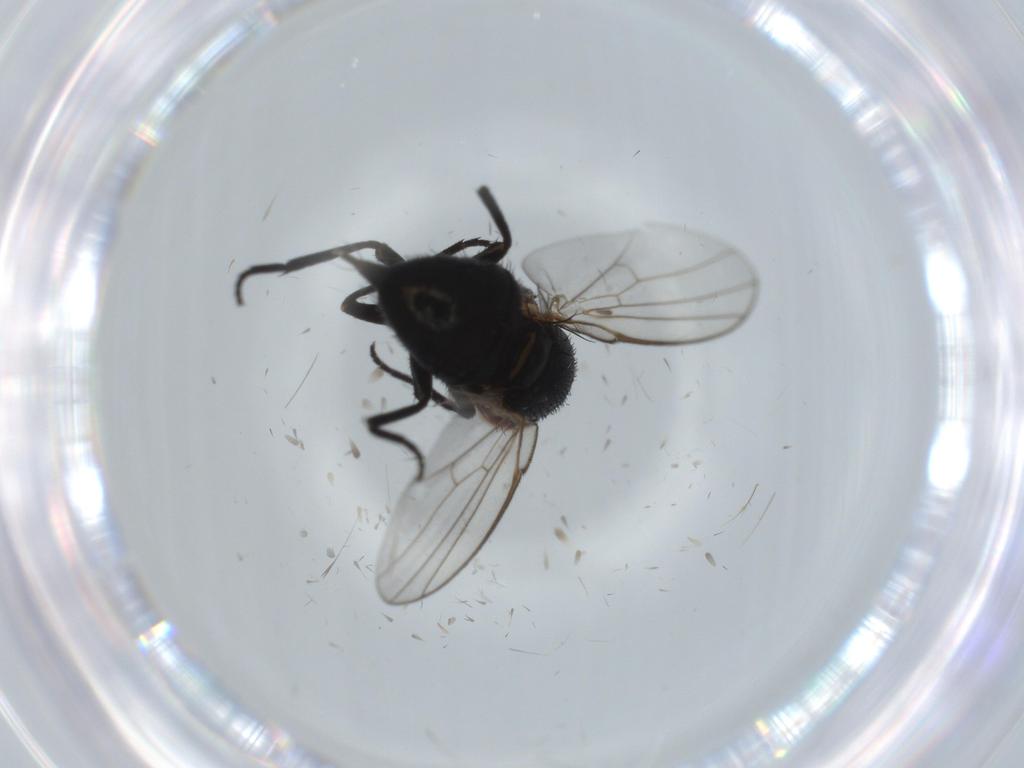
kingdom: Animalia
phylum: Arthropoda
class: Insecta
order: Diptera
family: Agromyzidae
